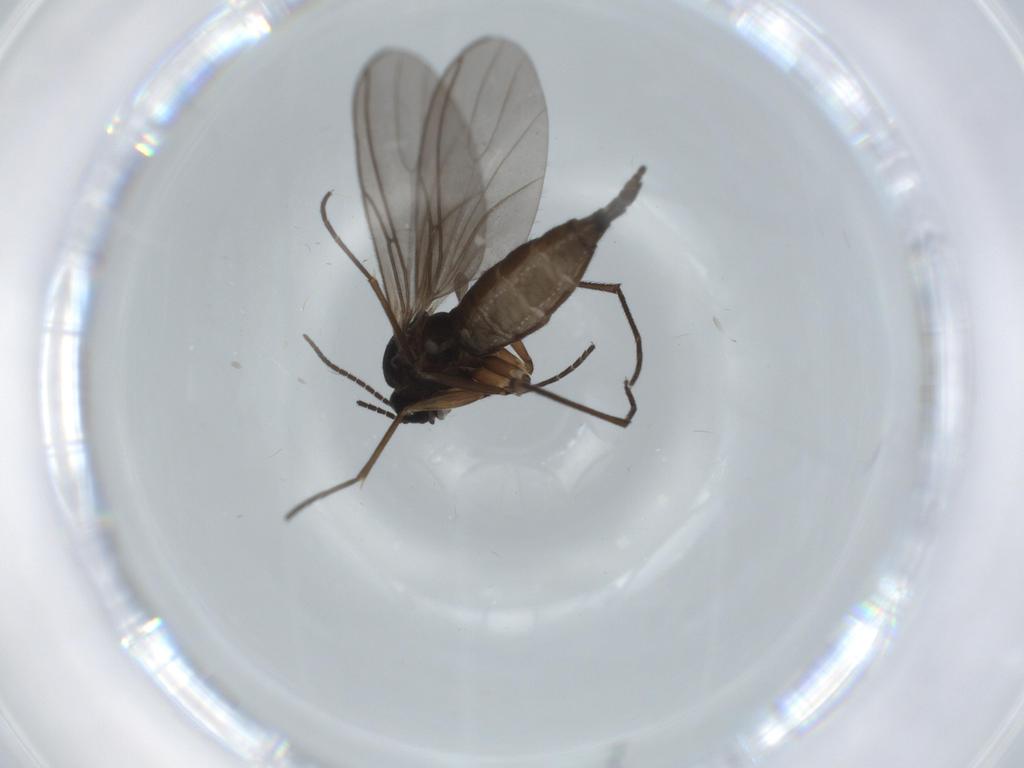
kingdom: Animalia
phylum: Arthropoda
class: Insecta
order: Diptera
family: Sciaridae
